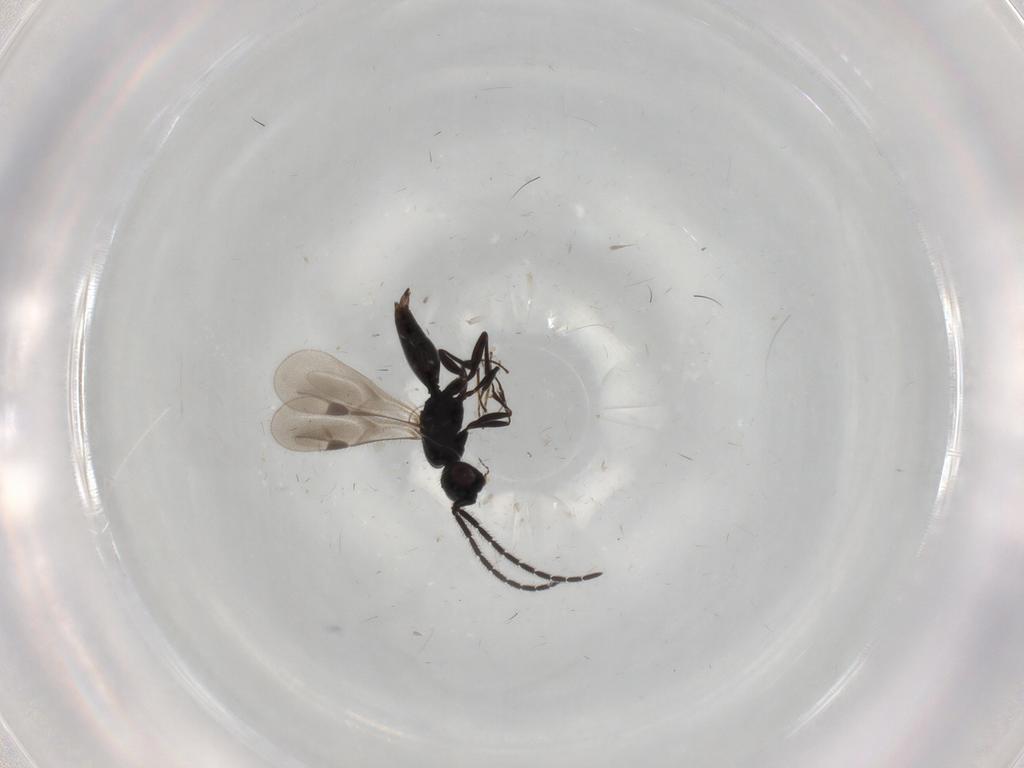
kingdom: Animalia
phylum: Arthropoda
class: Insecta
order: Hymenoptera
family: Megaspilidae
